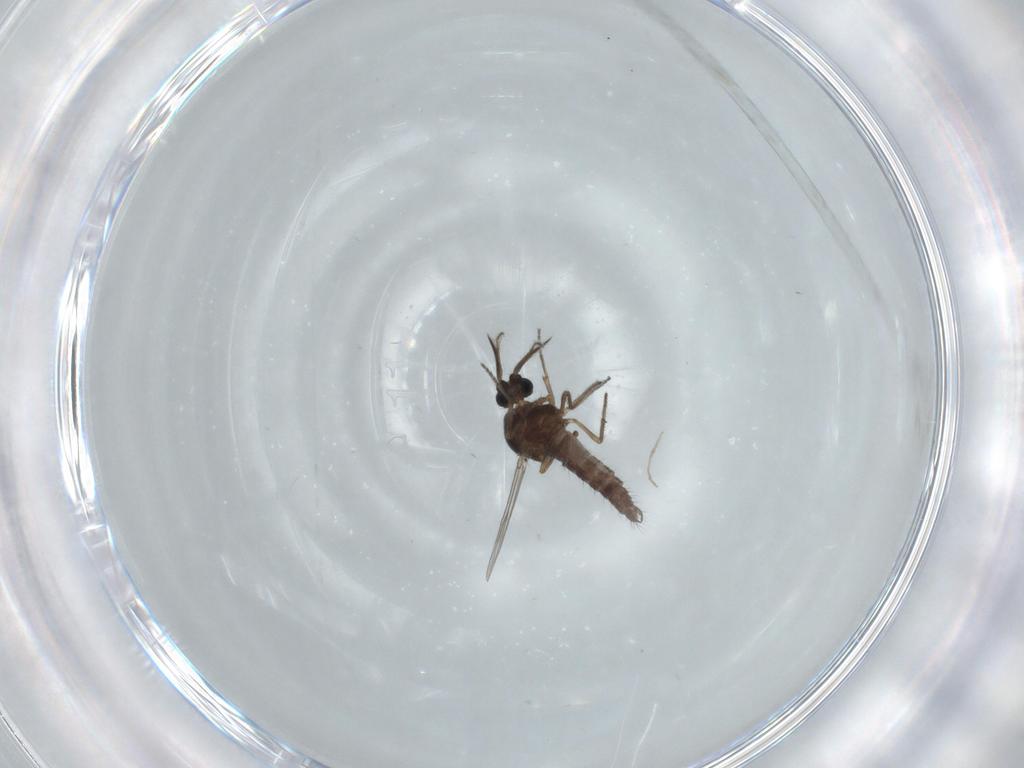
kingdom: Animalia
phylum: Arthropoda
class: Insecta
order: Diptera
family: Ceratopogonidae
